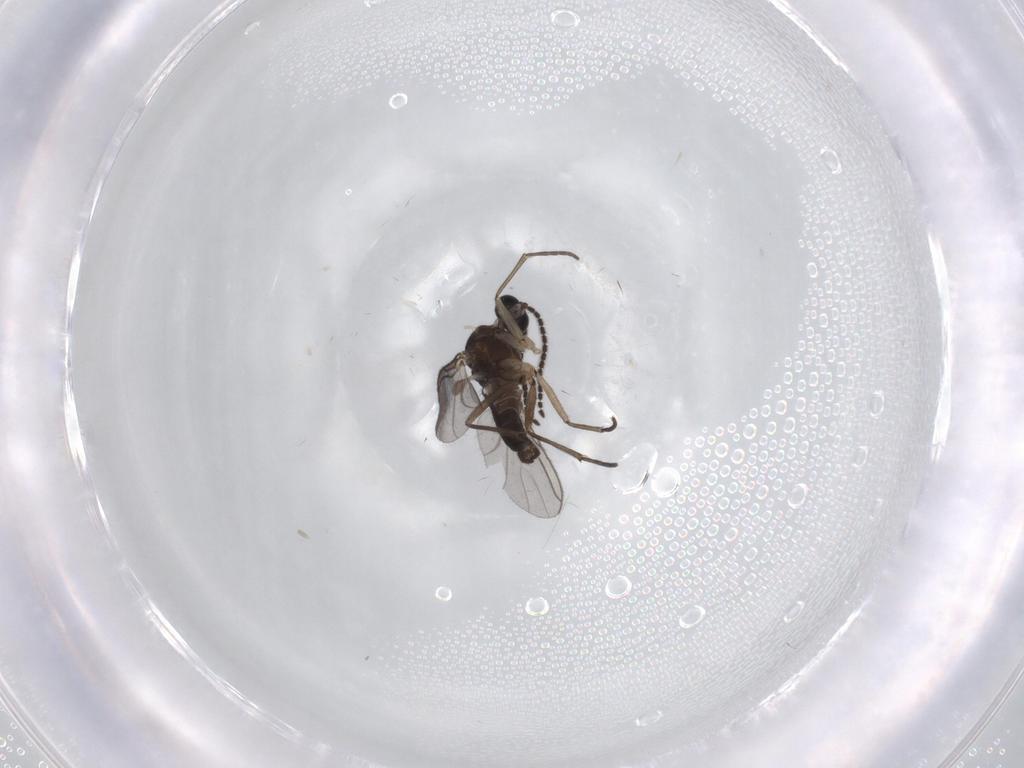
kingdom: Animalia
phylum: Arthropoda
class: Insecta
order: Diptera
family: Sciaridae
